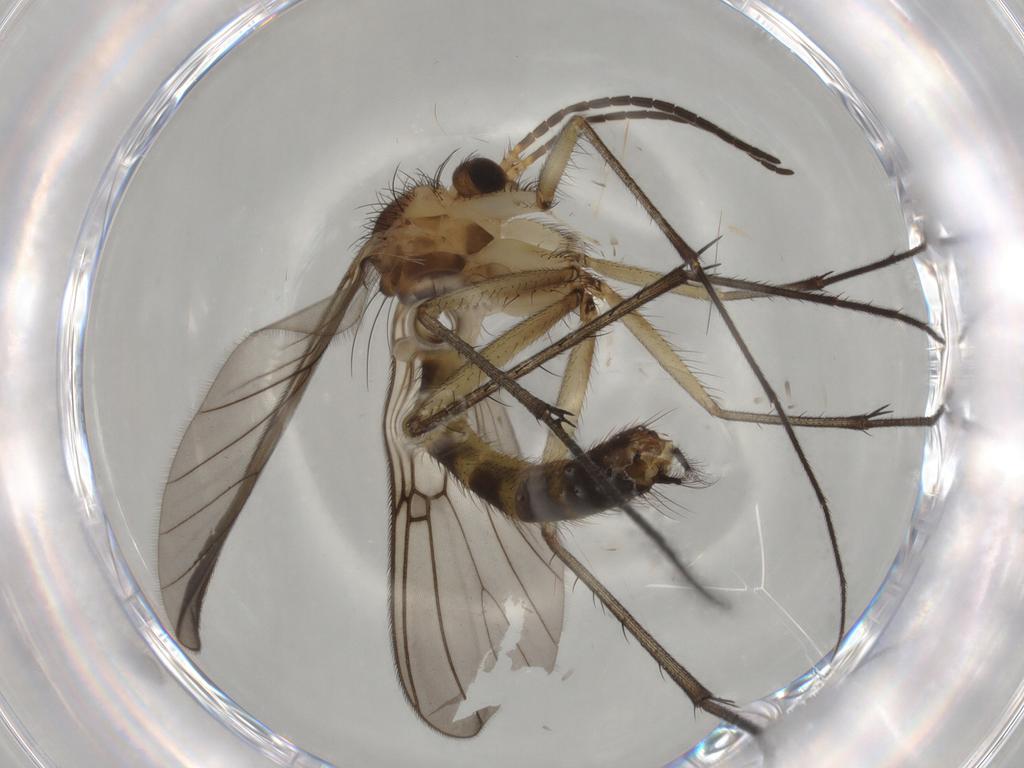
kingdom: Animalia
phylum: Arthropoda
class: Insecta
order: Diptera
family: Mycetophilidae
